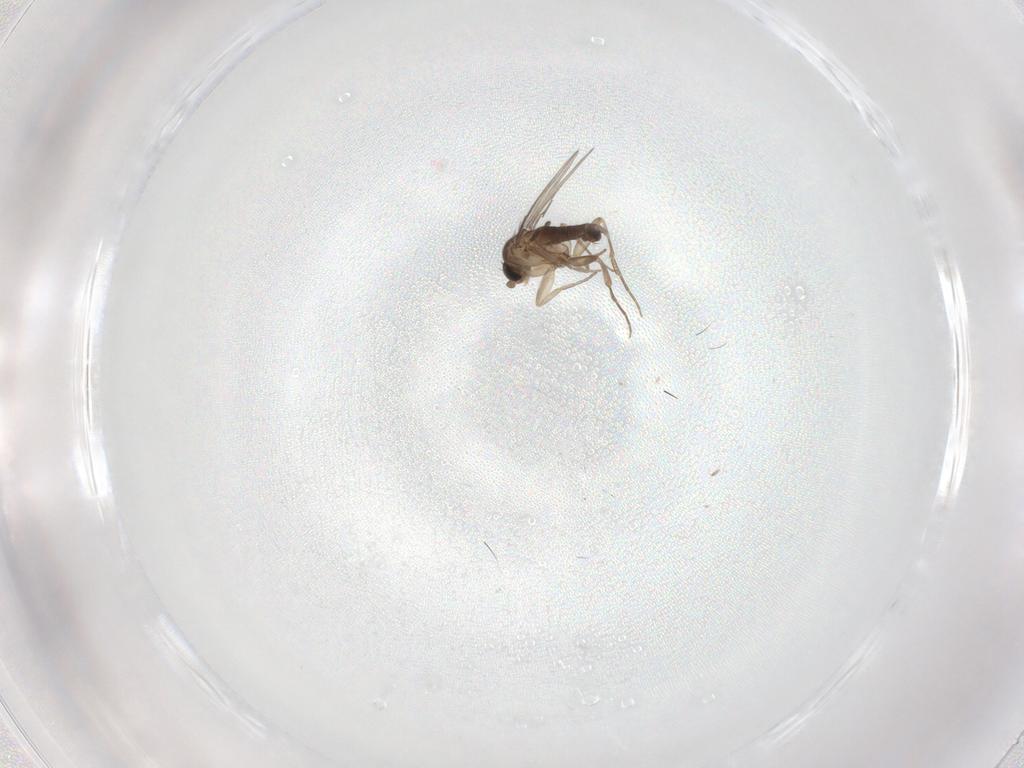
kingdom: Animalia
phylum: Arthropoda
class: Insecta
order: Diptera
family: Phoridae
